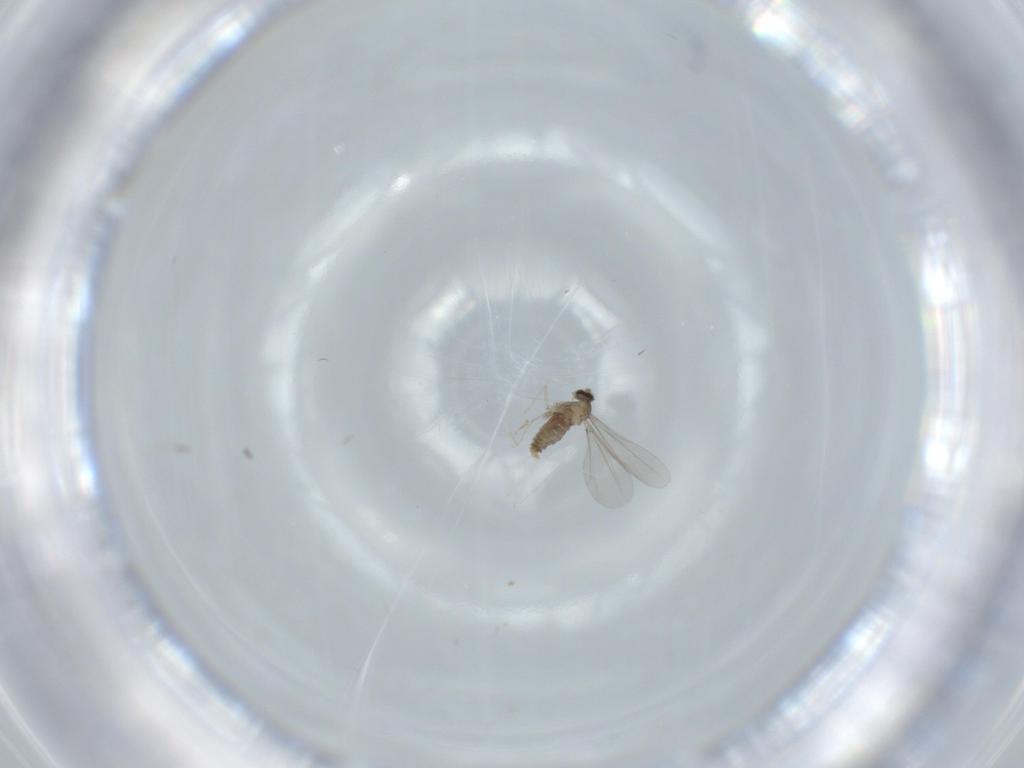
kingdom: Animalia
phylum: Arthropoda
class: Insecta
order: Diptera
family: Cecidomyiidae
